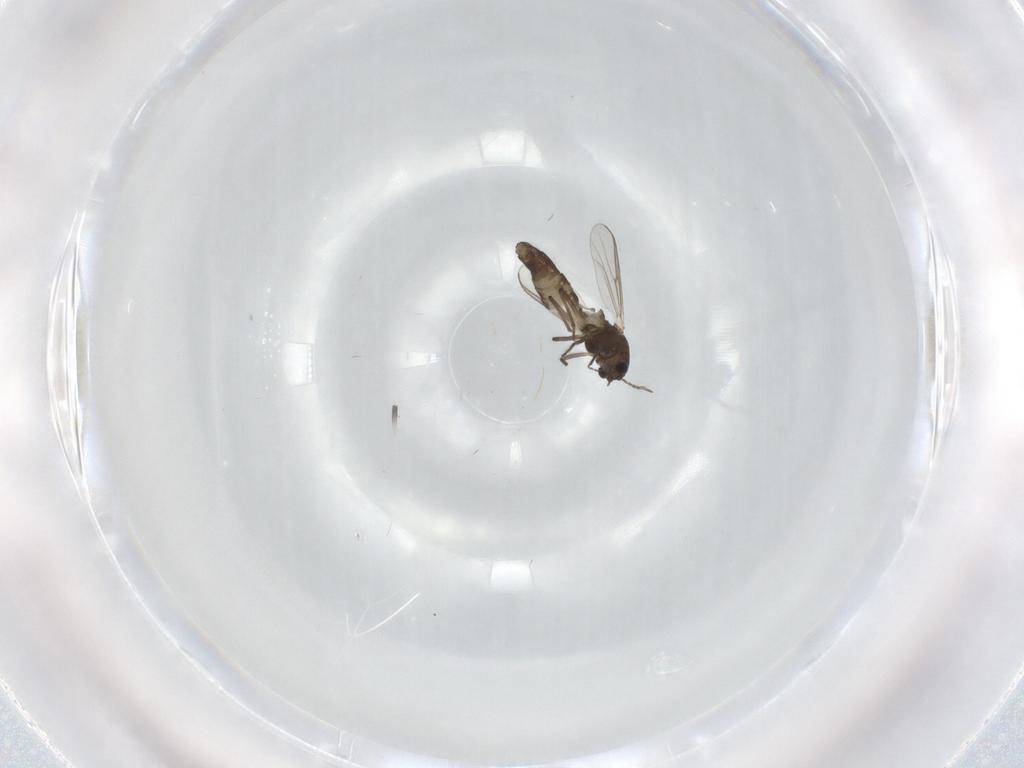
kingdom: Animalia
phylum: Arthropoda
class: Insecta
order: Diptera
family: Chironomidae
